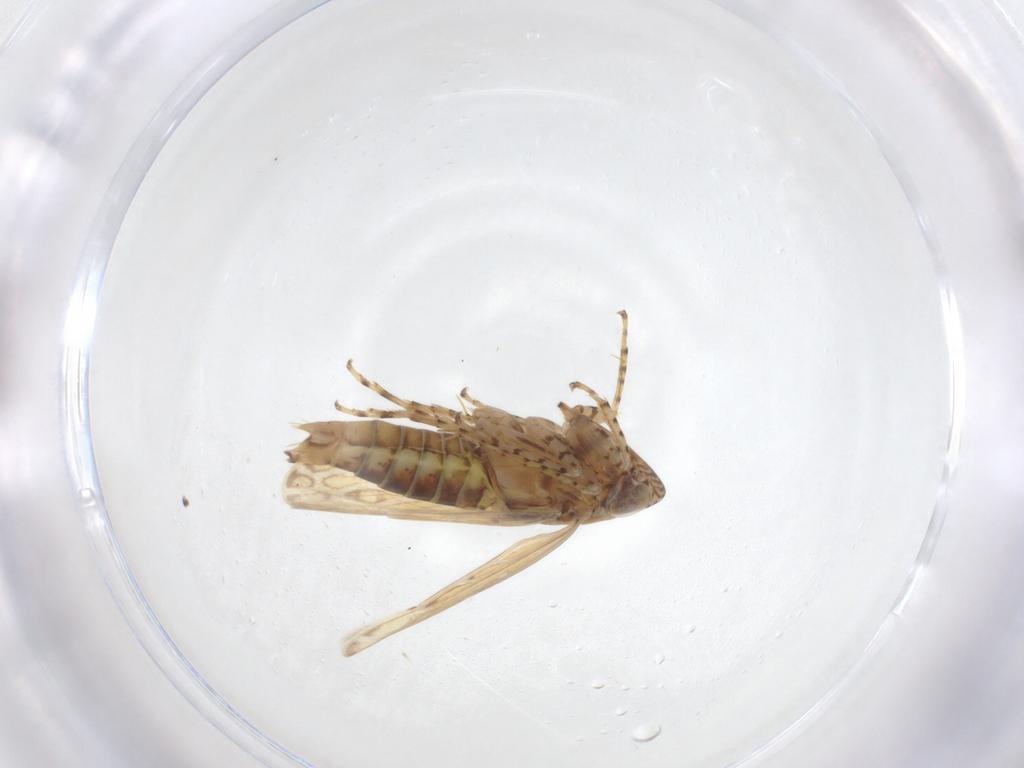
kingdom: Animalia
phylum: Arthropoda
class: Insecta
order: Hemiptera
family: Cicadellidae
